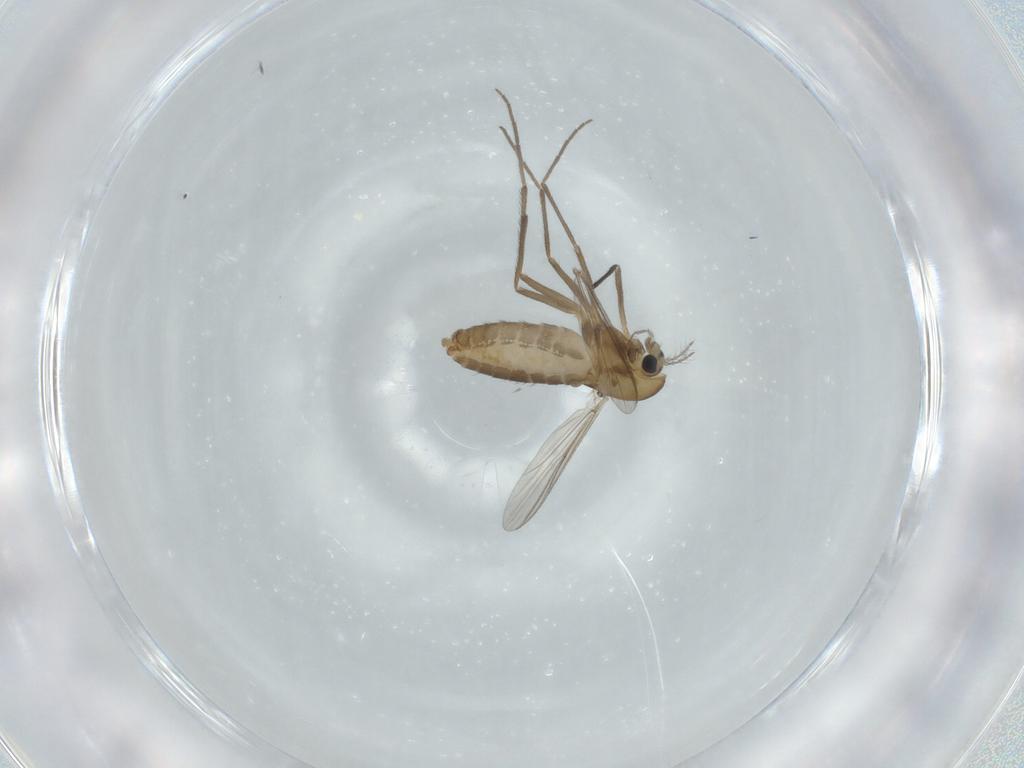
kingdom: Animalia
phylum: Arthropoda
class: Insecta
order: Diptera
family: Chironomidae
